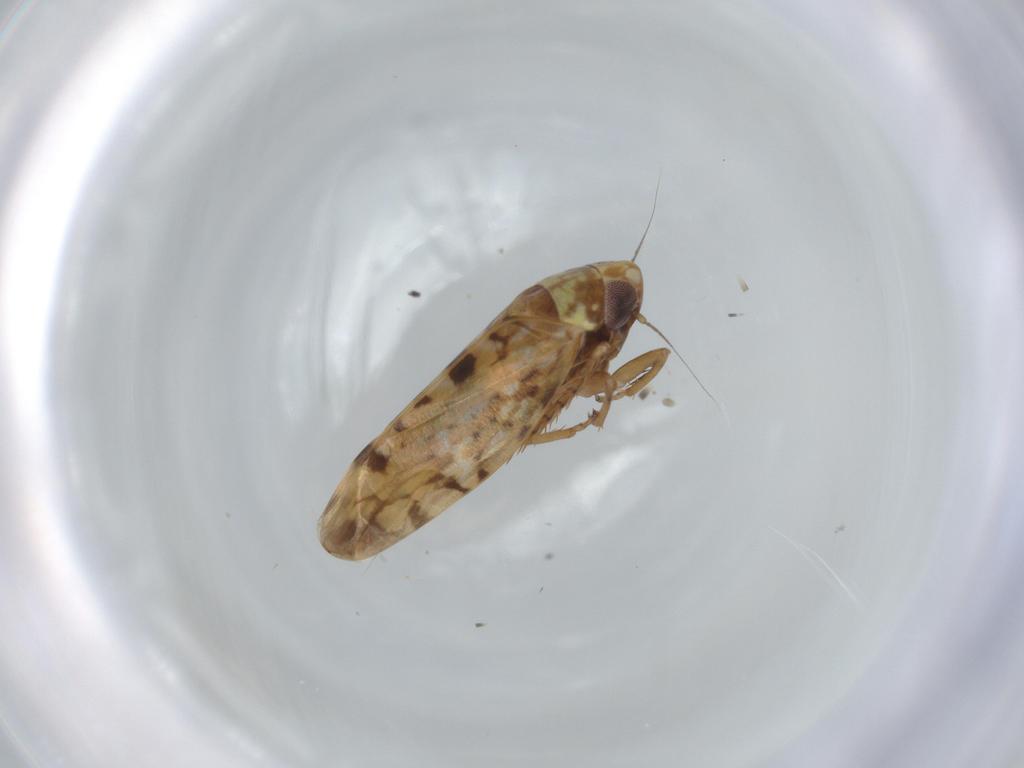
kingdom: Animalia
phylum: Arthropoda
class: Insecta
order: Hemiptera
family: Cicadellidae
